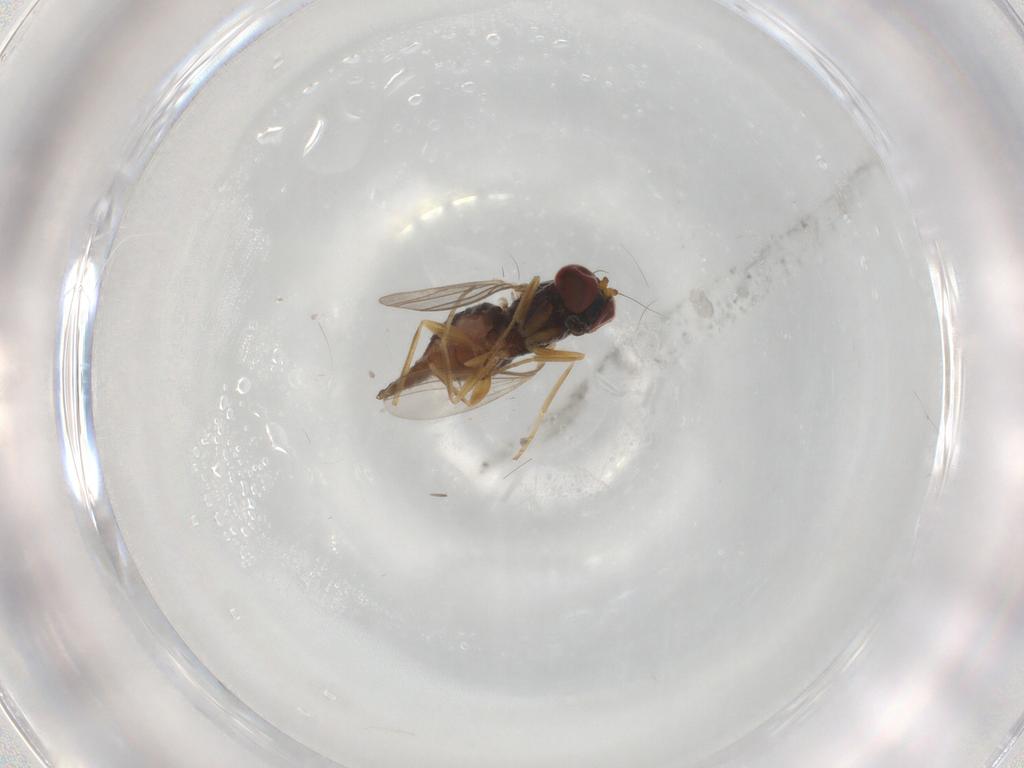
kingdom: Animalia
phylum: Arthropoda
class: Insecta
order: Diptera
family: Dolichopodidae
